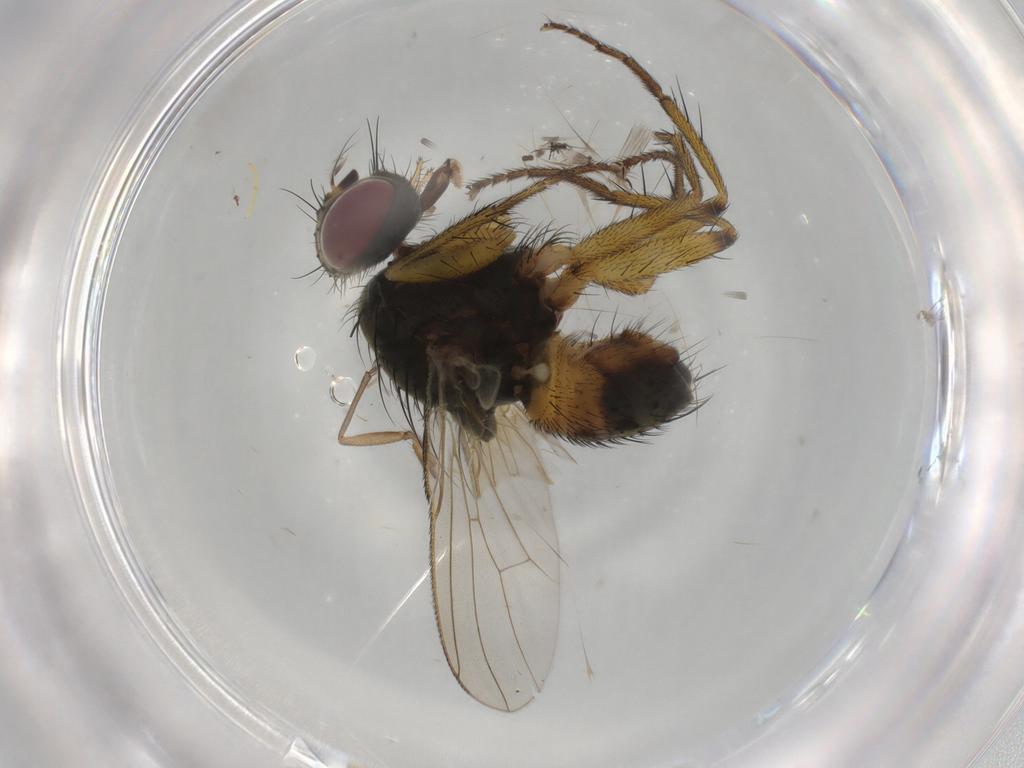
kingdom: Animalia
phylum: Arthropoda
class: Insecta
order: Diptera
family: Muscidae
